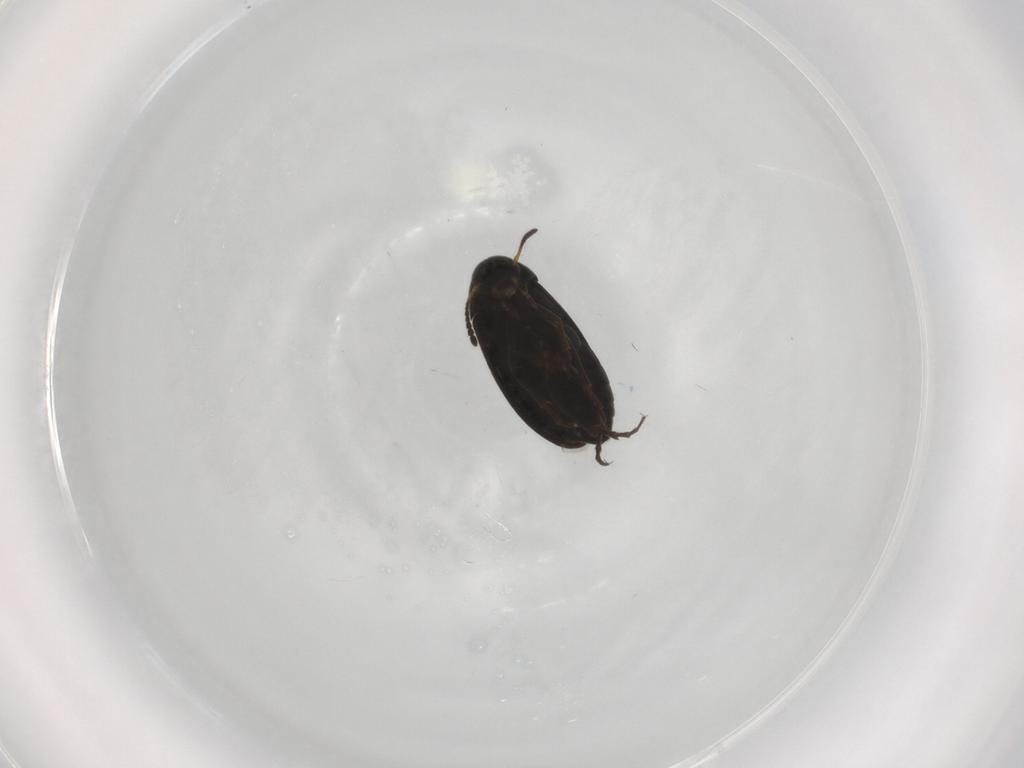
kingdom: Animalia
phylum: Arthropoda
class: Insecta
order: Coleoptera
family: Scraptiidae
